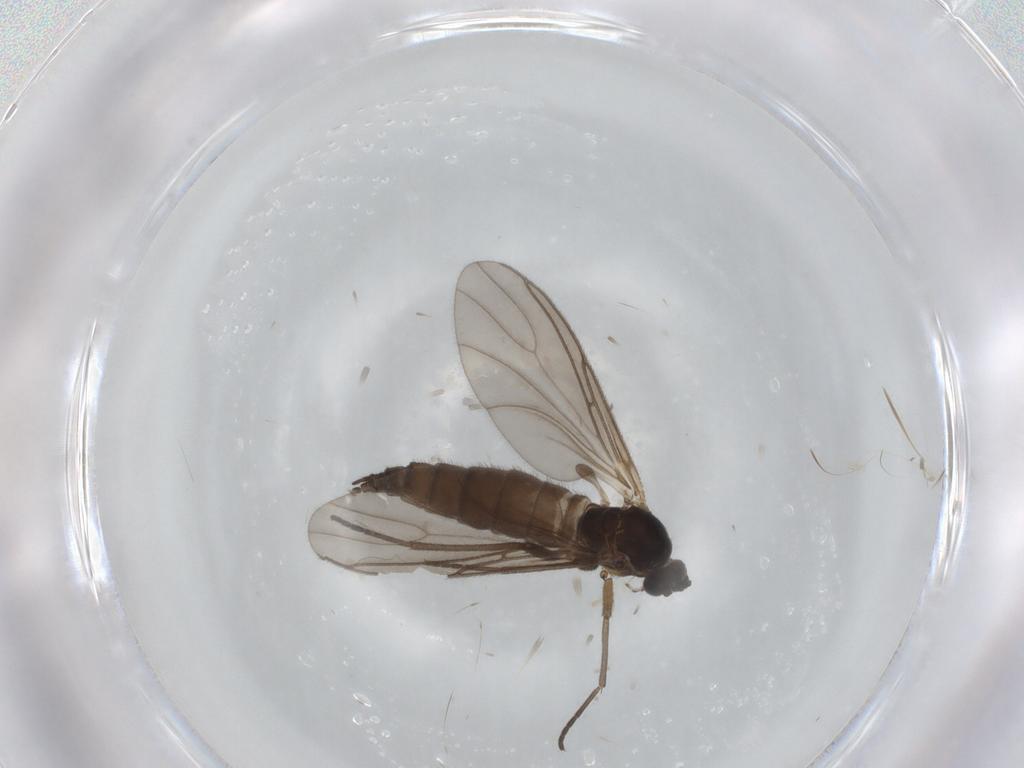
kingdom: Animalia
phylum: Arthropoda
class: Insecta
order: Diptera
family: Sciaridae
